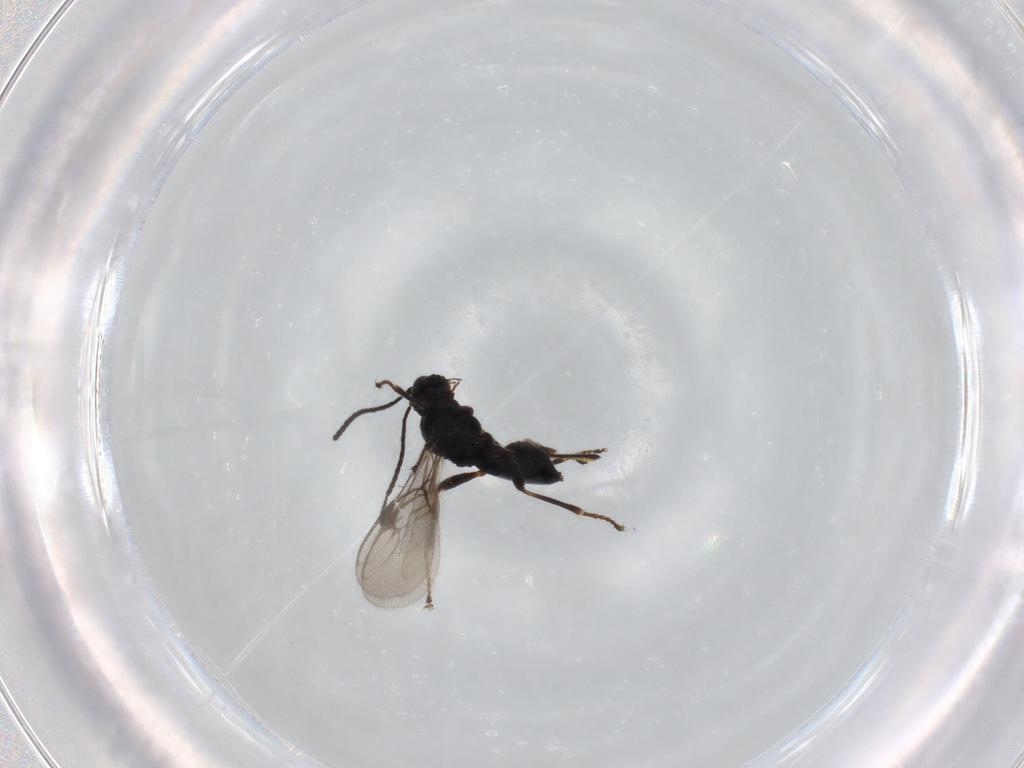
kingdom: Animalia
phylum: Arthropoda
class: Insecta
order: Hymenoptera
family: Braconidae
